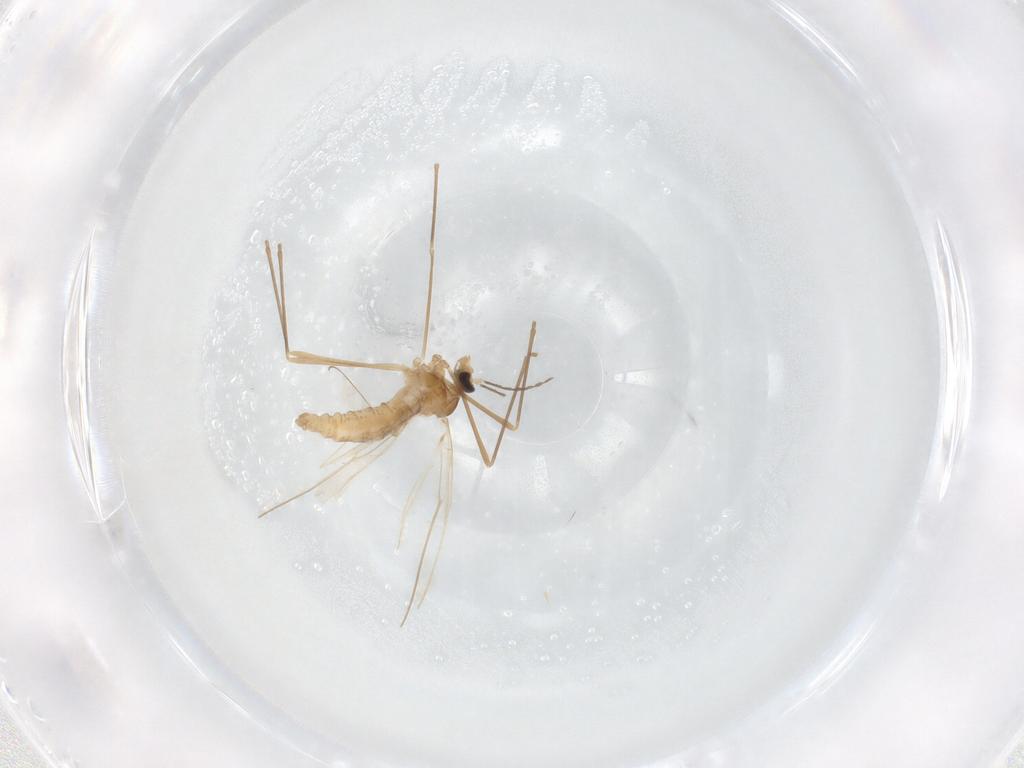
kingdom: Animalia
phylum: Arthropoda
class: Insecta
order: Diptera
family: Cecidomyiidae
